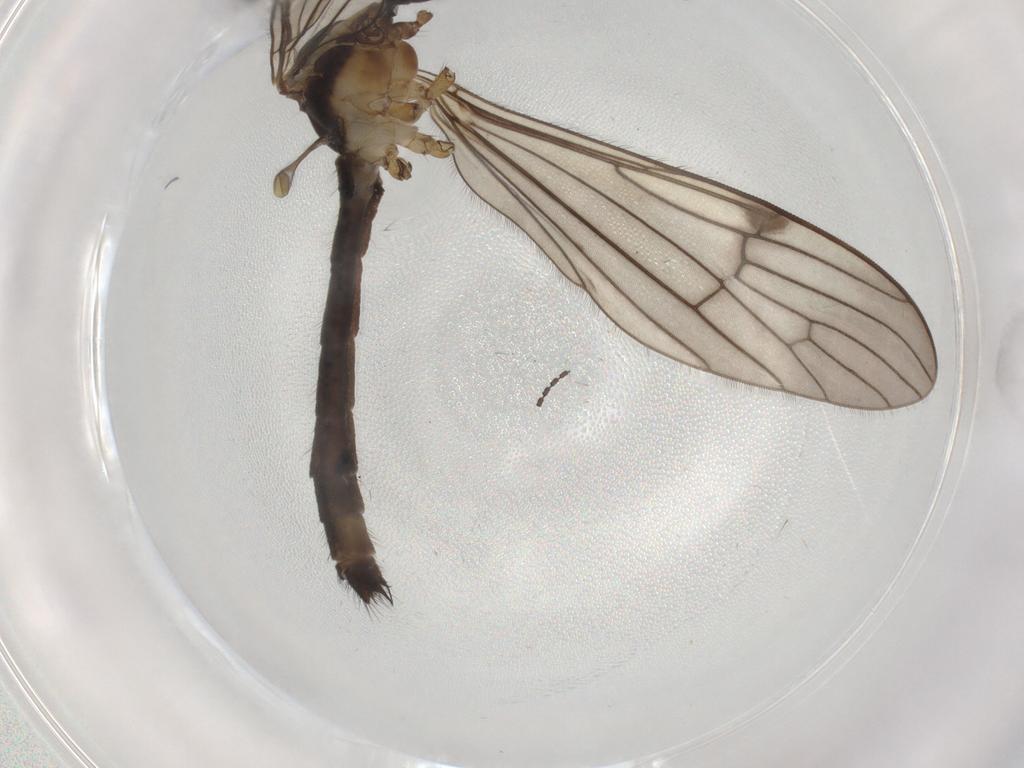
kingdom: Animalia
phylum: Arthropoda
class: Insecta
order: Diptera
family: Limoniidae
